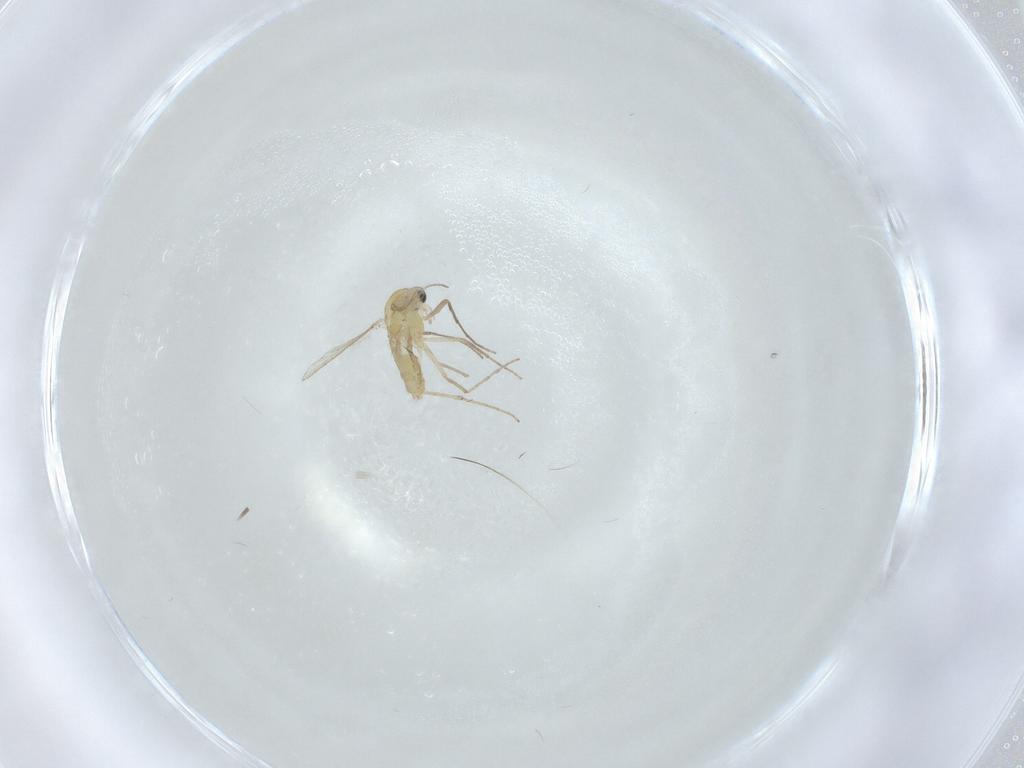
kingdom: Animalia
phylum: Arthropoda
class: Insecta
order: Diptera
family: Chironomidae
